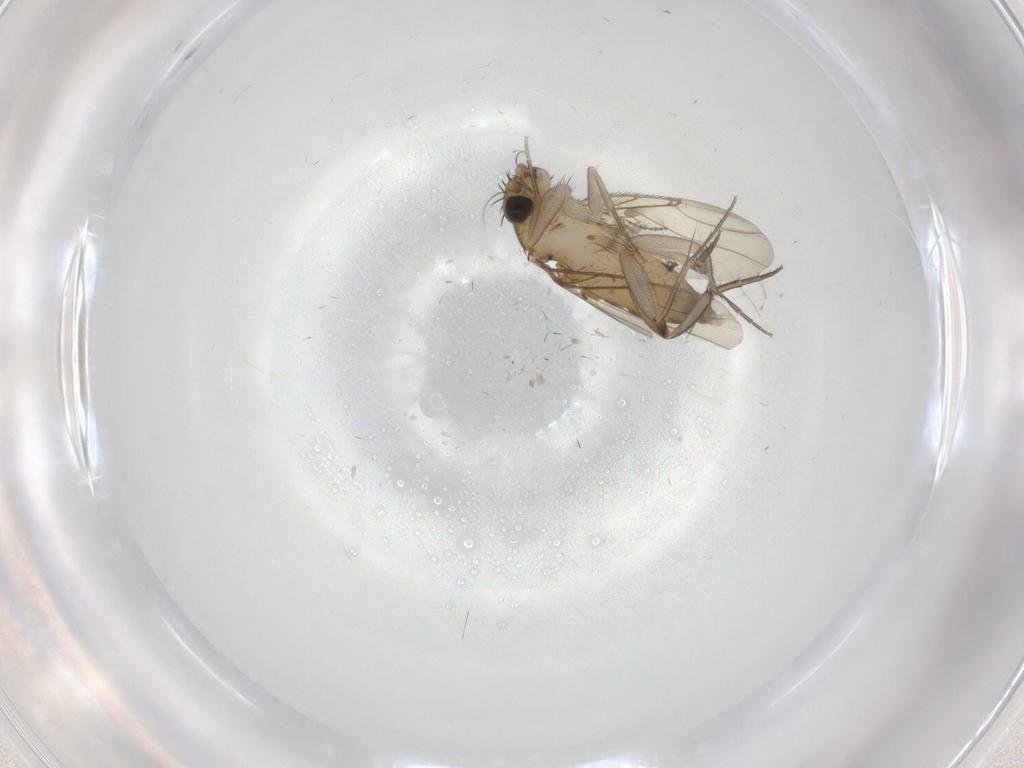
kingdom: Animalia
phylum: Arthropoda
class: Insecta
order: Diptera
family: Phoridae
